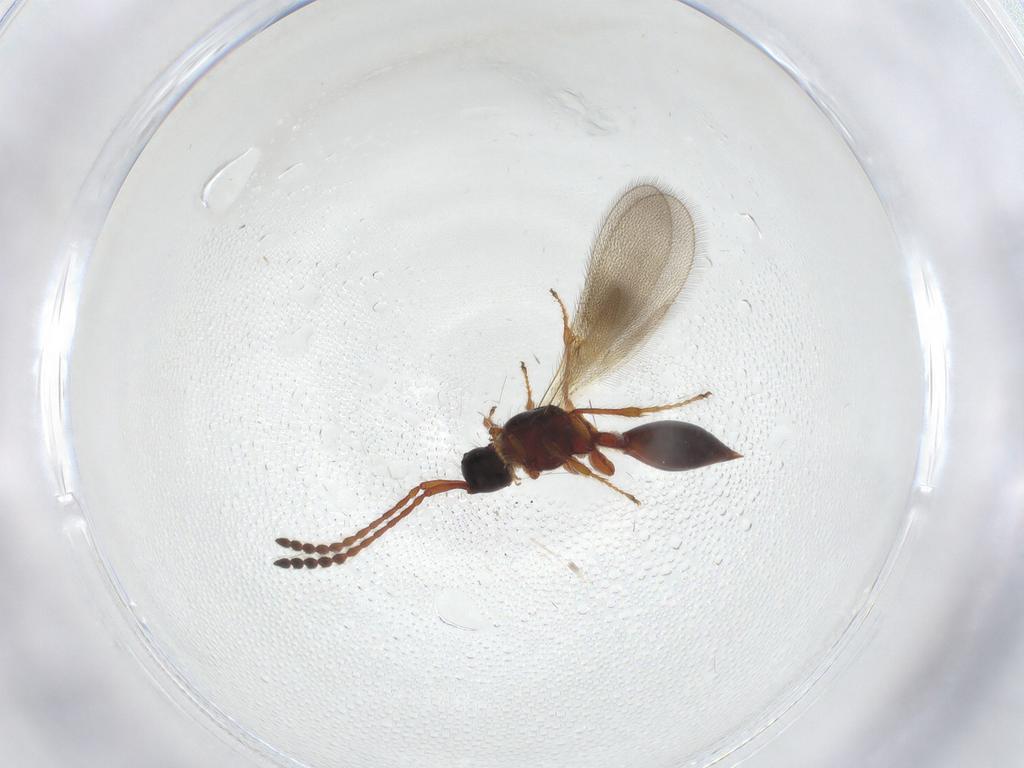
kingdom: Animalia
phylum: Arthropoda
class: Insecta
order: Hymenoptera
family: Diapriidae
